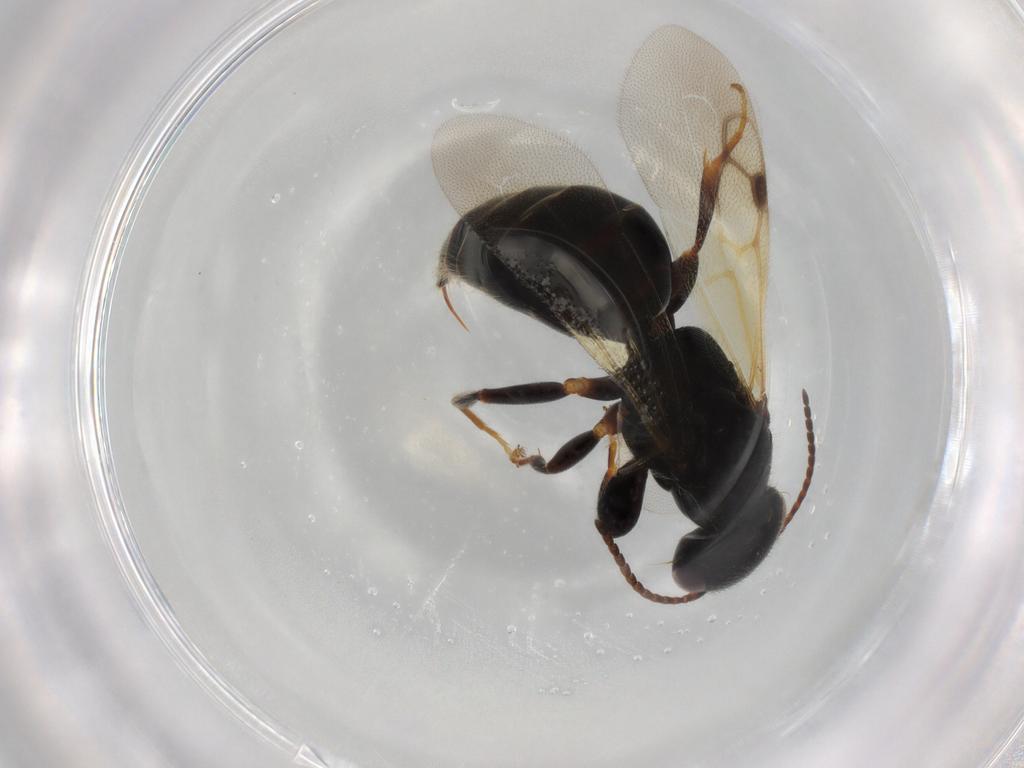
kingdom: Animalia
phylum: Arthropoda
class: Insecta
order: Hymenoptera
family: Bethylidae
